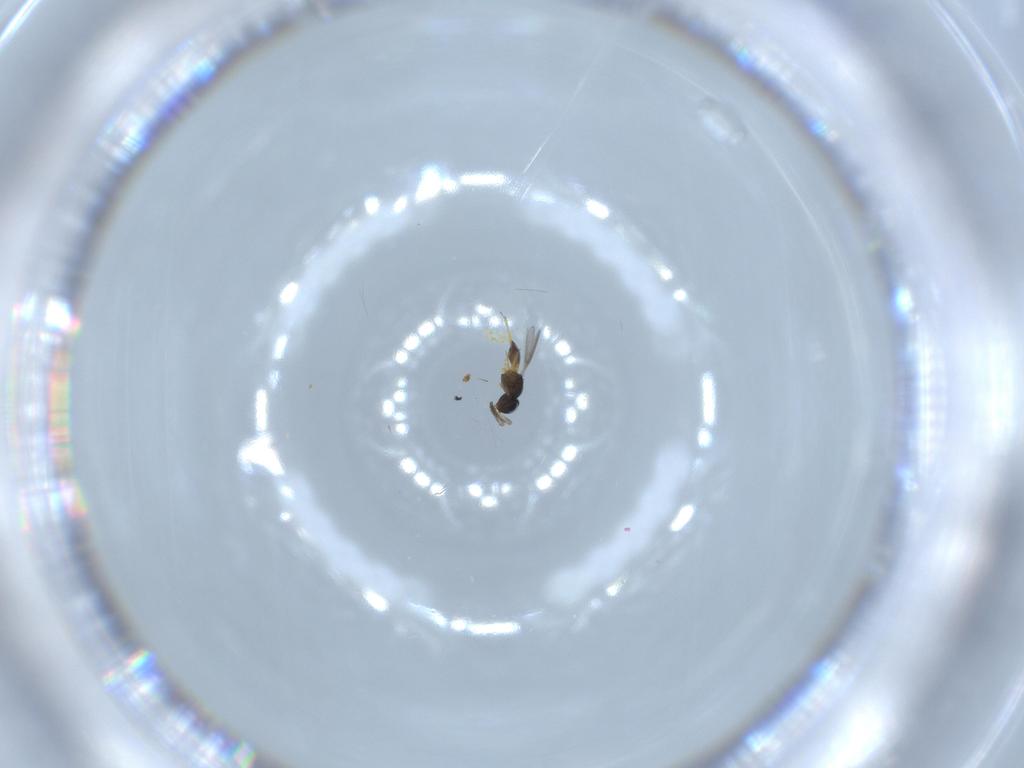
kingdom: Animalia
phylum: Arthropoda
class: Insecta
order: Hymenoptera
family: Scelionidae
